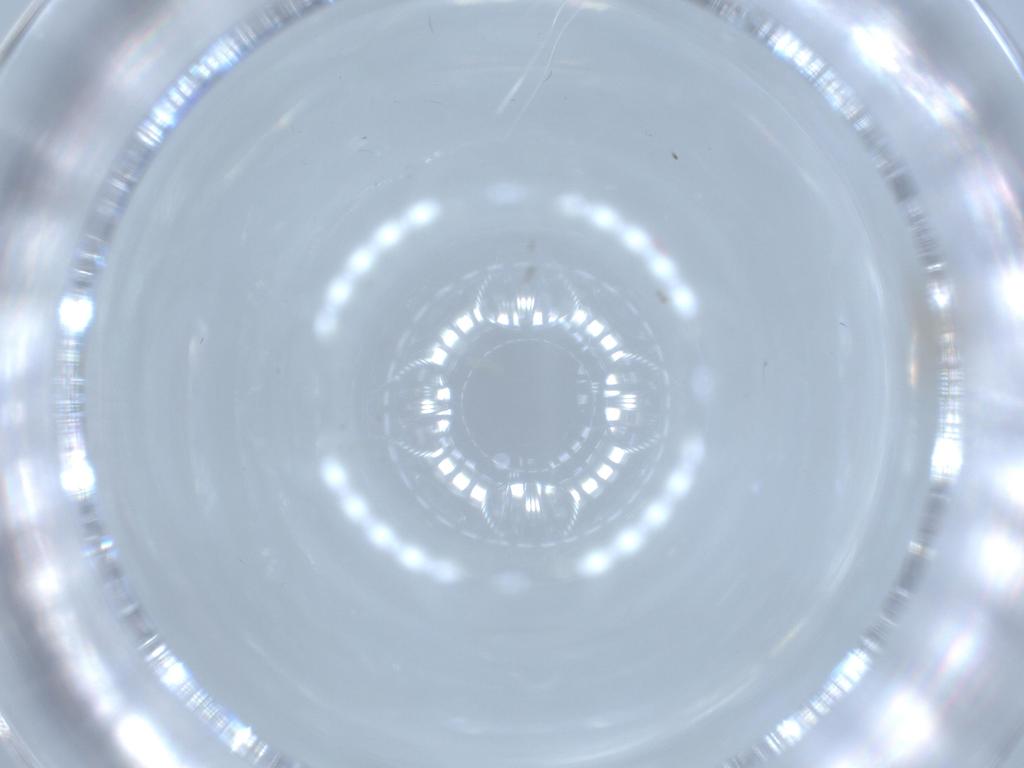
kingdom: Animalia
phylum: Arthropoda
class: Insecta
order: Diptera
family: Cecidomyiidae
